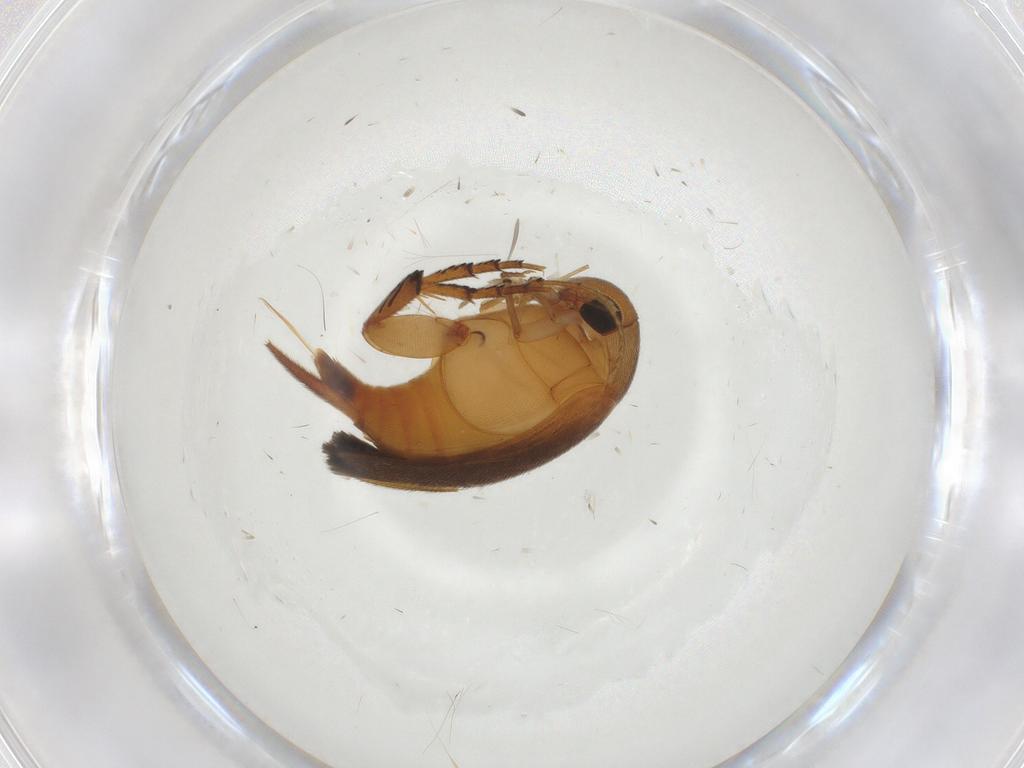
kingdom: Animalia
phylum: Arthropoda
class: Insecta
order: Coleoptera
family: Mordellidae
